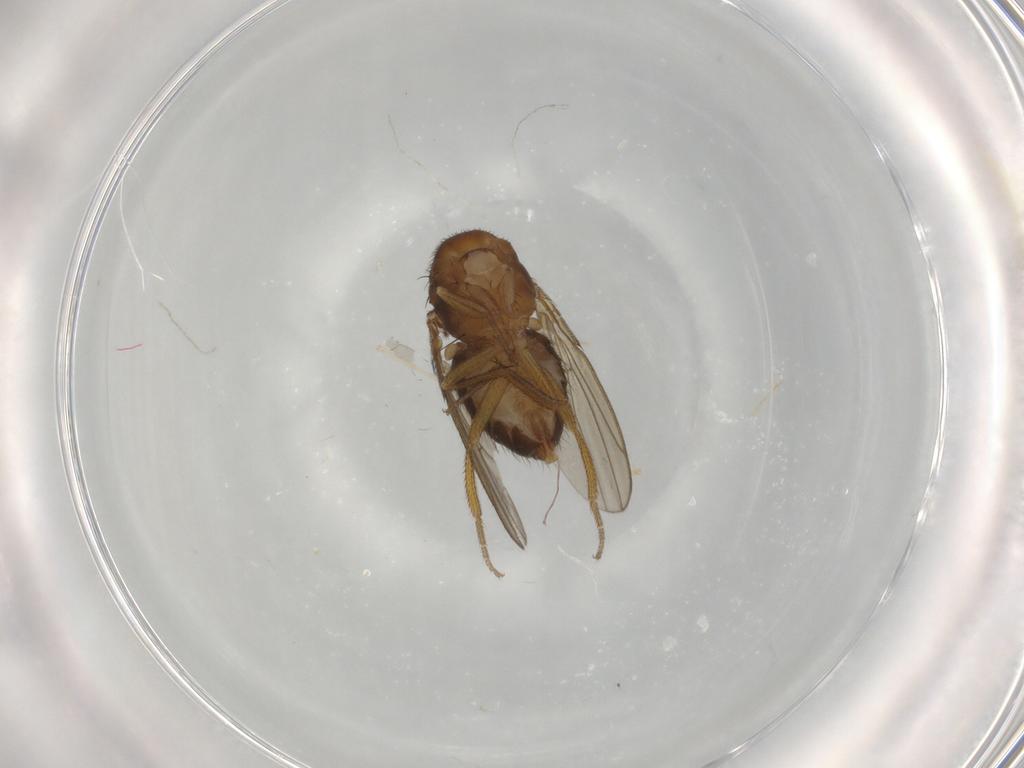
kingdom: Animalia
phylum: Arthropoda
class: Insecta
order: Diptera
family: Drosophilidae
